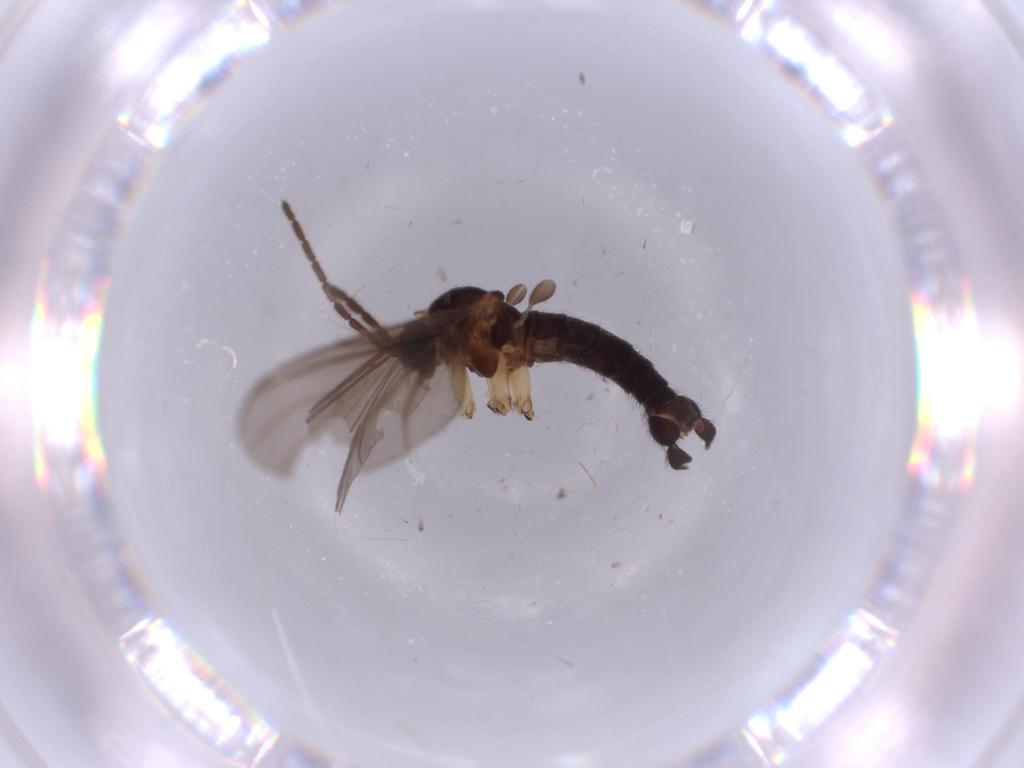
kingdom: Animalia
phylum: Arthropoda
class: Insecta
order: Diptera
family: Sciaridae
